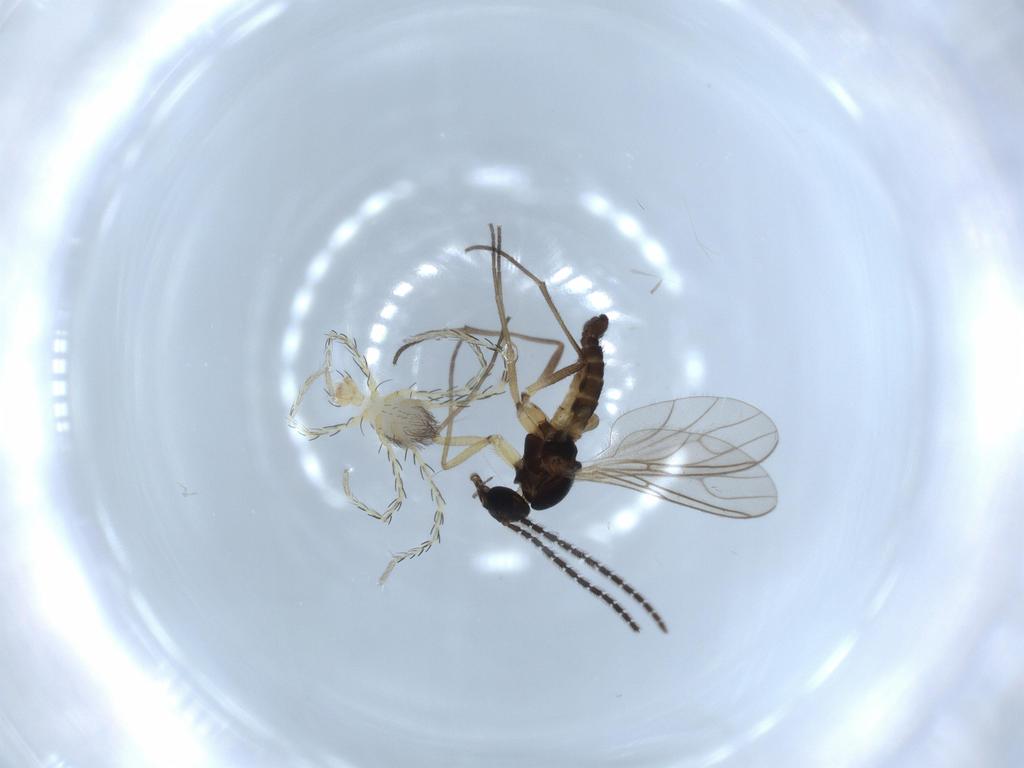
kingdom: Animalia
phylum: Arthropoda
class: Insecta
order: Diptera
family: Sciaridae
